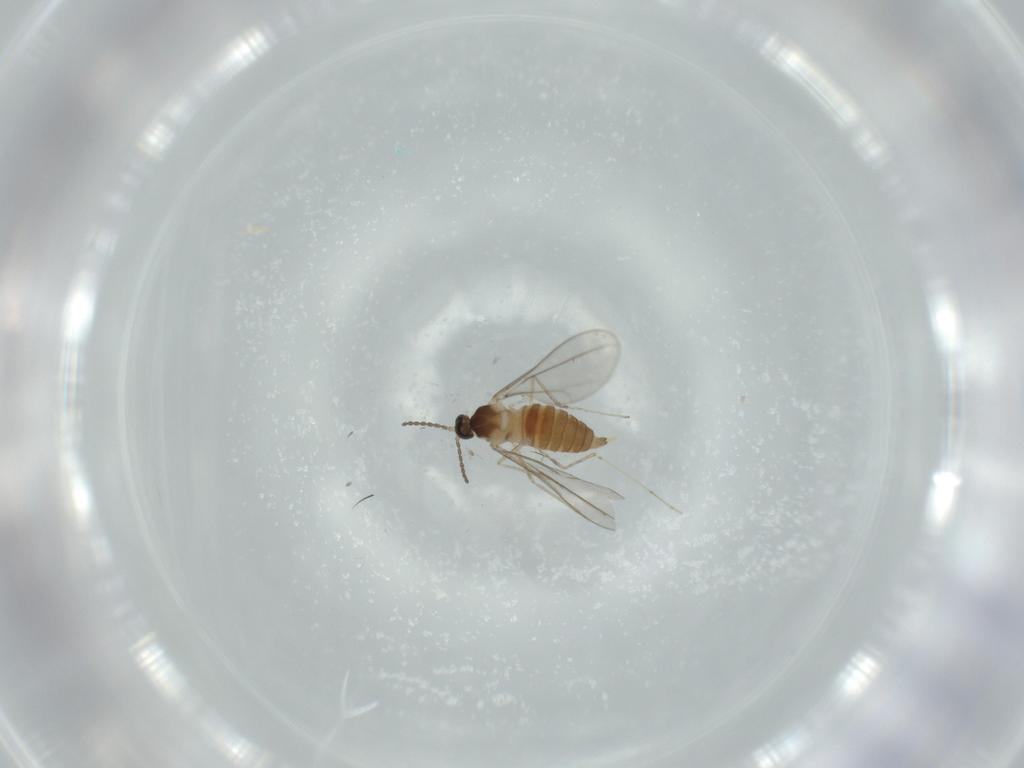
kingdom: Animalia
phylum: Arthropoda
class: Insecta
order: Diptera
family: Cecidomyiidae
